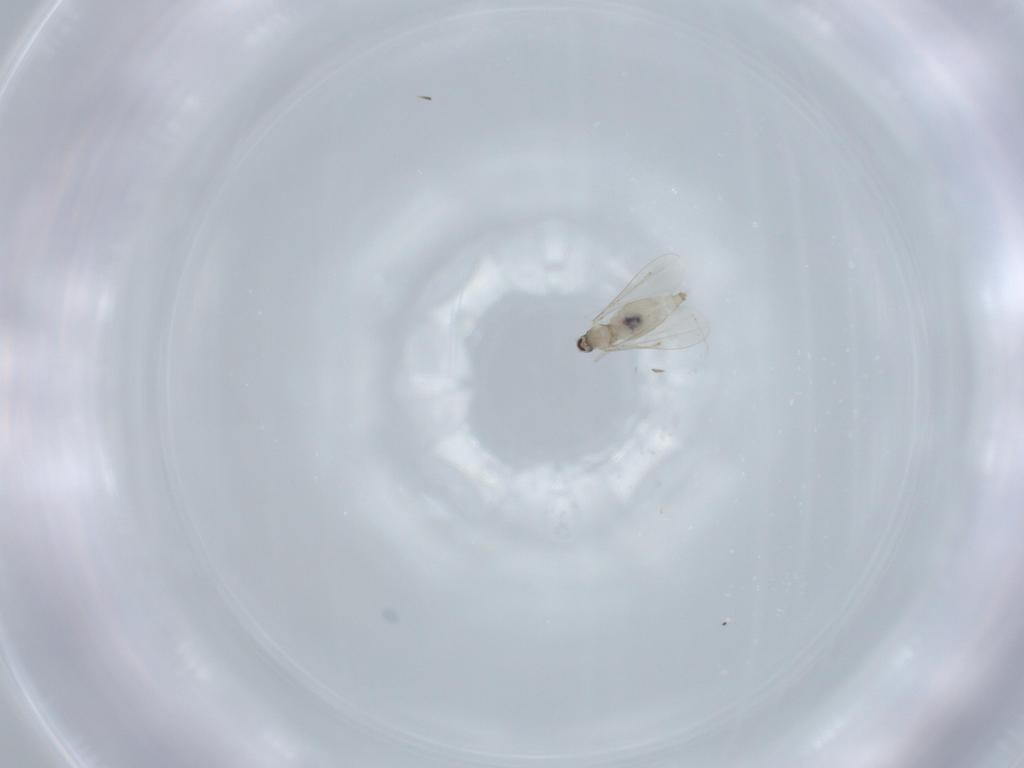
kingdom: Animalia
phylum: Arthropoda
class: Insecta
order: Diptera
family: Cecidomyiidae
